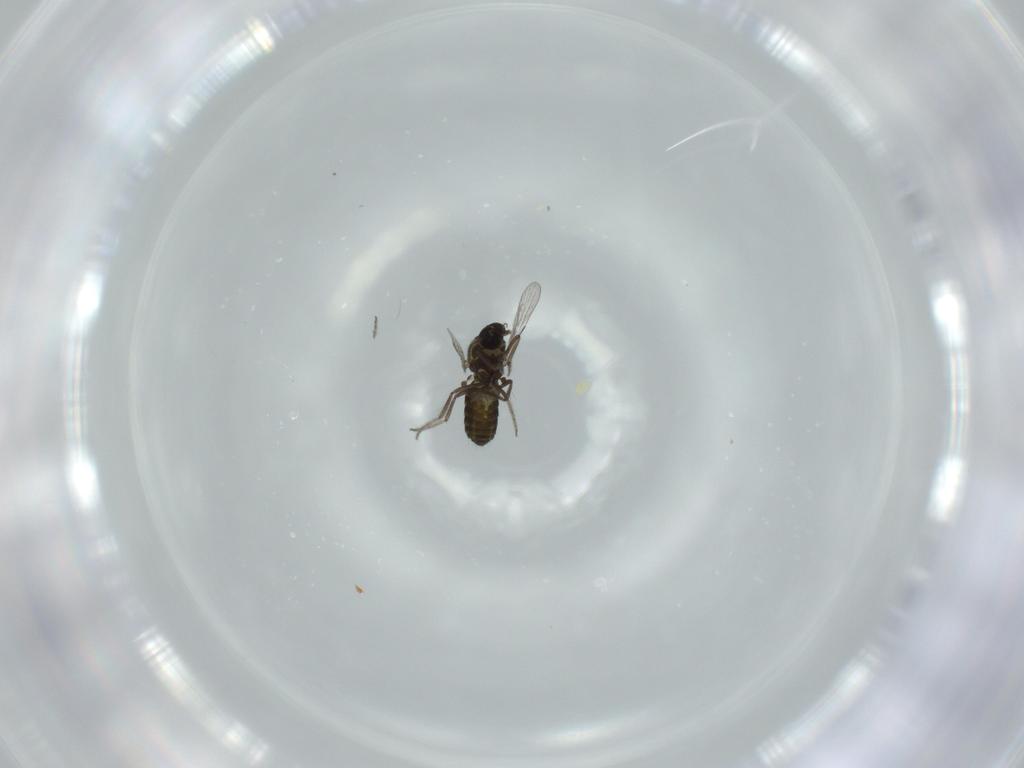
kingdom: Animalia
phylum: Arthropoda
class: Insecta
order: Diptera
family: Ceratopogonidae
